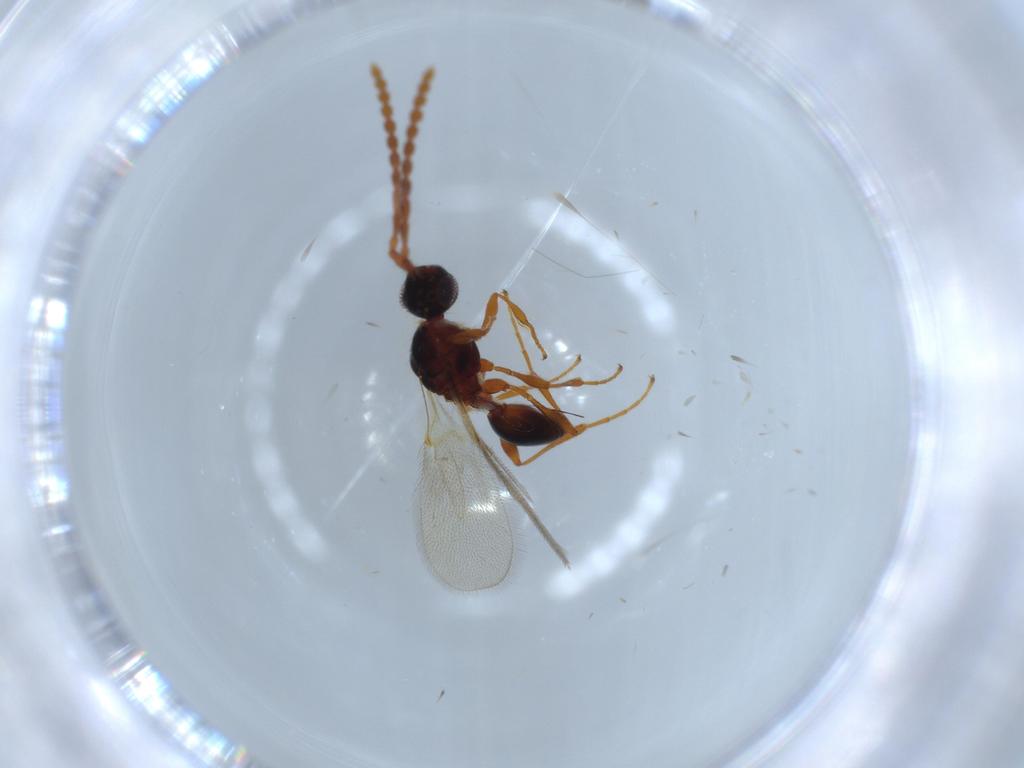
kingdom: Animalia
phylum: Arthropoda
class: Insecta
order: Hymenoptera
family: Diapriidae
